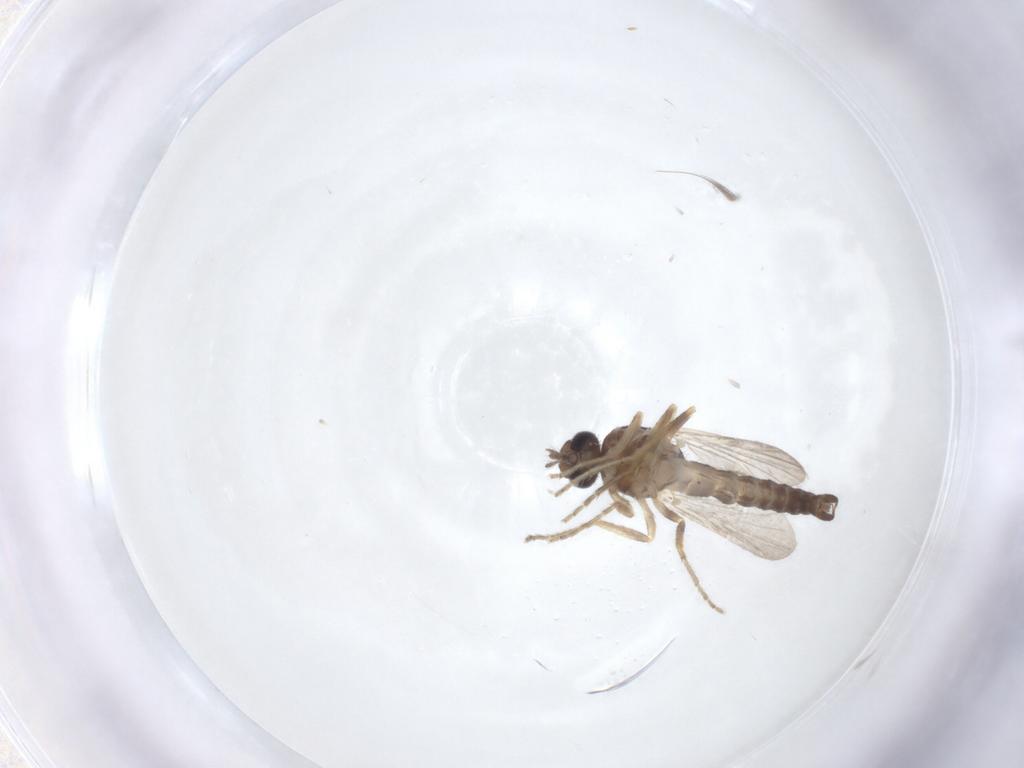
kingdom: Animalia
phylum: Arthropoda
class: Insecta
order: Diptera
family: Ceratopogonidae
